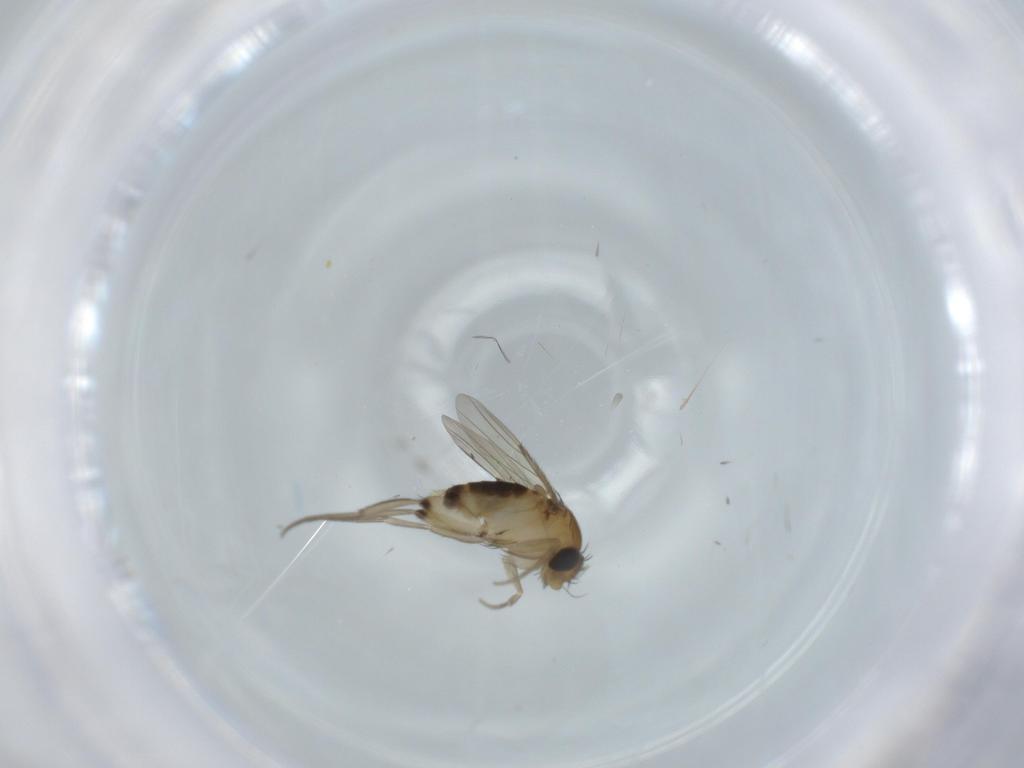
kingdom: Animalia
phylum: Arthropoda
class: Insecta
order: Diptera
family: Phoridae
